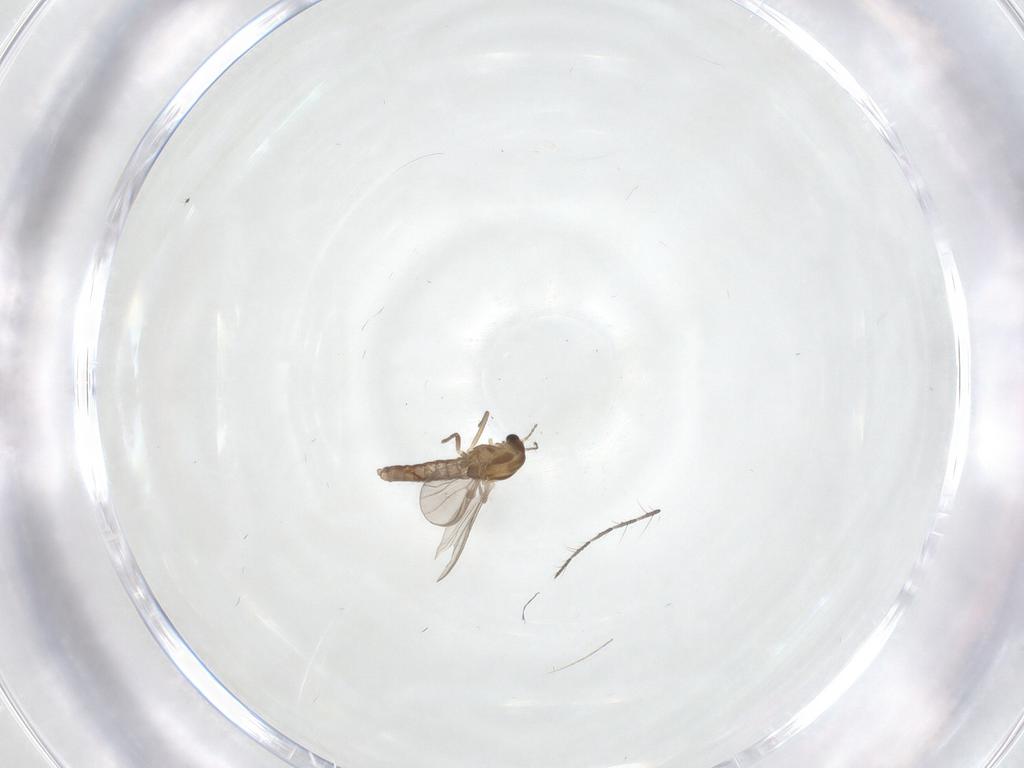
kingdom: Animalia
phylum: Arthropoda
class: Insecta
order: Diptera
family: Chironomidae
